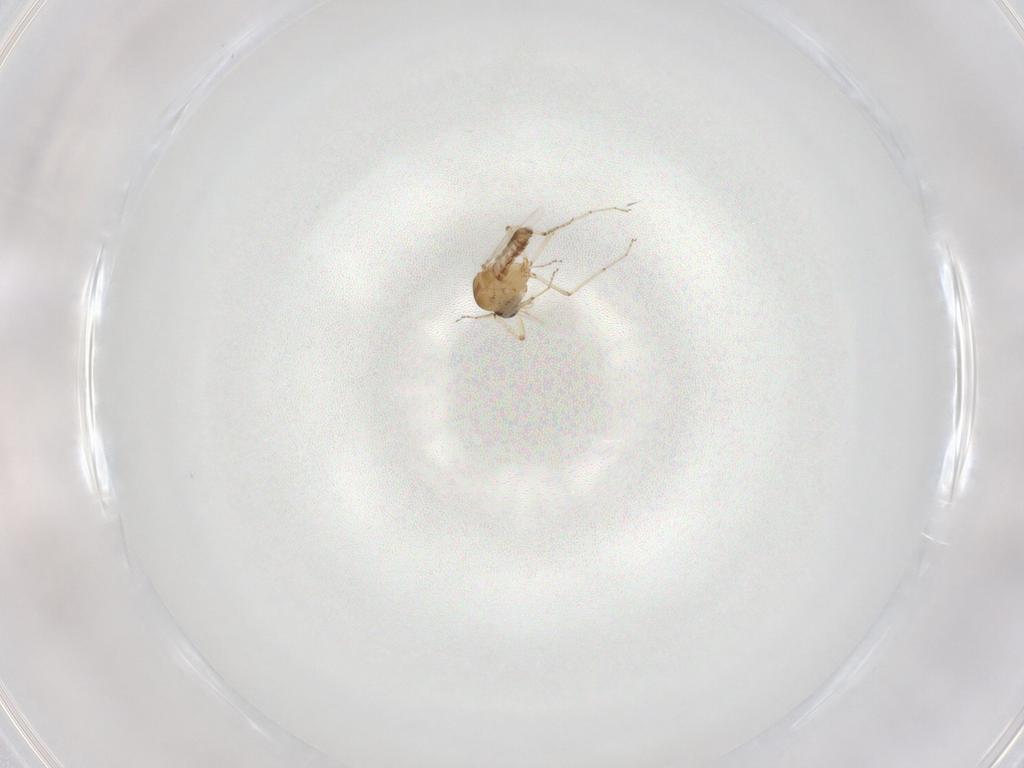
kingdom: Animalia
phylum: Arthropoda
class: Insecta
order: Diptera
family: Ceratopogonidae
